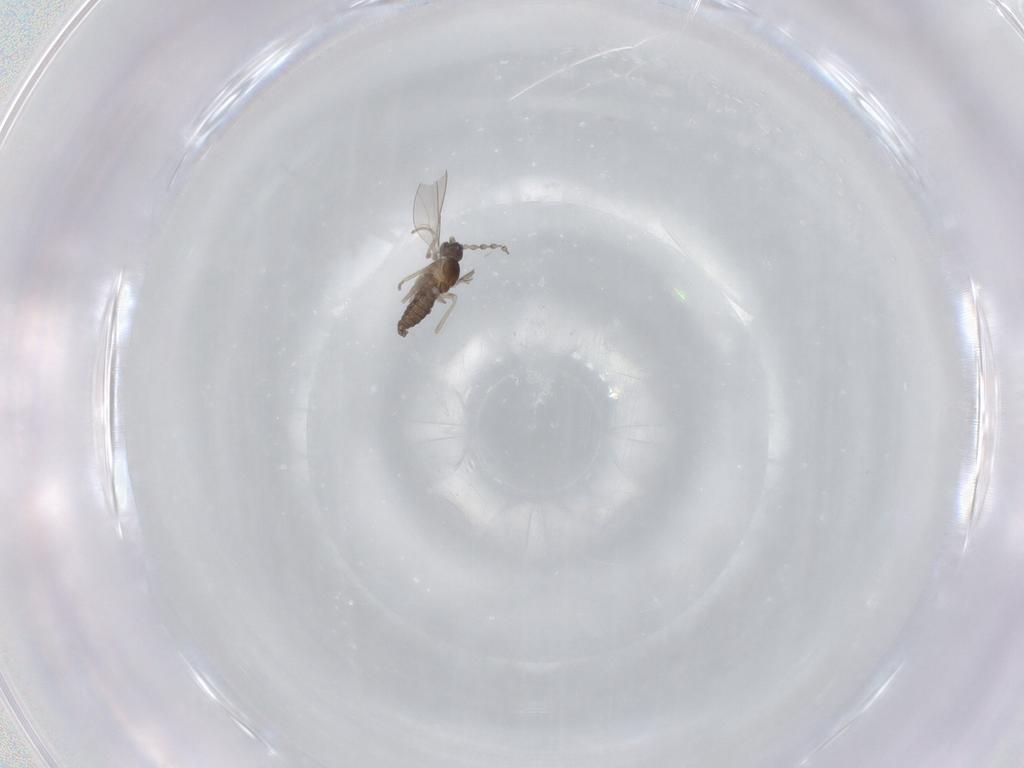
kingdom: Animalia
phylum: Arthropoda
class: Insecta
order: Diptera
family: Cecidomyiidae
